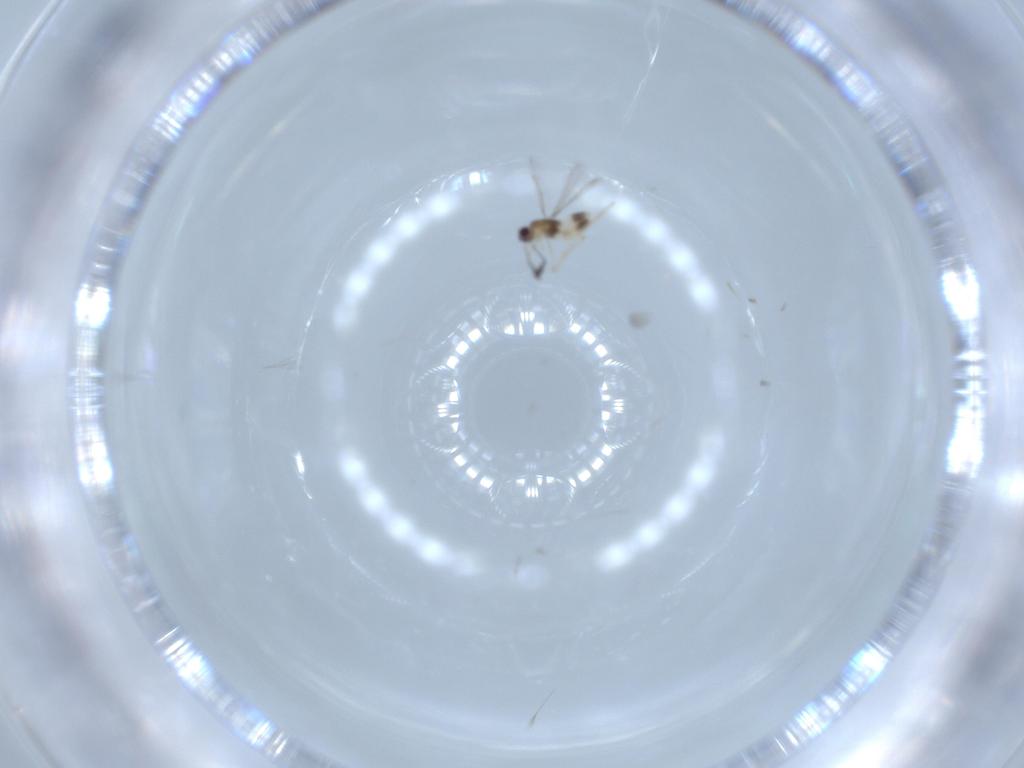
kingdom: Animalia
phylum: Arthropoda
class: Insecta
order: Hymenoptera
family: Mymaridae
